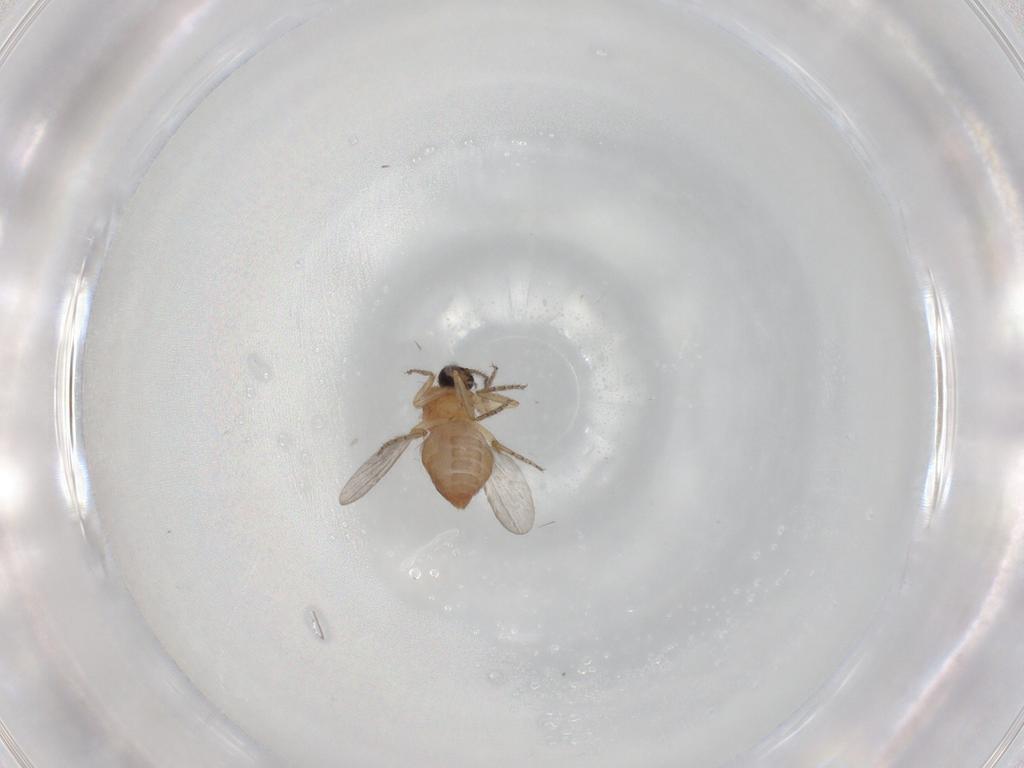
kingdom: Animalia
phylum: Arthropoda
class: Insecta
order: Diptera
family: Ceratopogonidae
